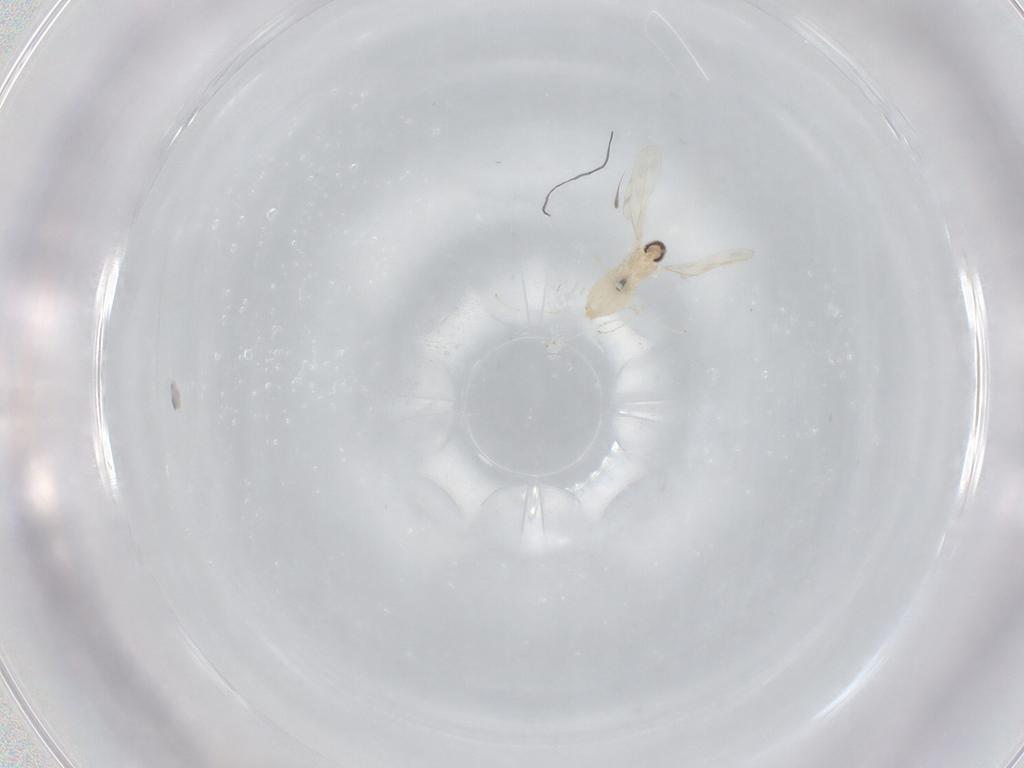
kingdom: Animalia
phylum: Arthropoda
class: Insecta
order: Diptera
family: Cecidomyiidae
